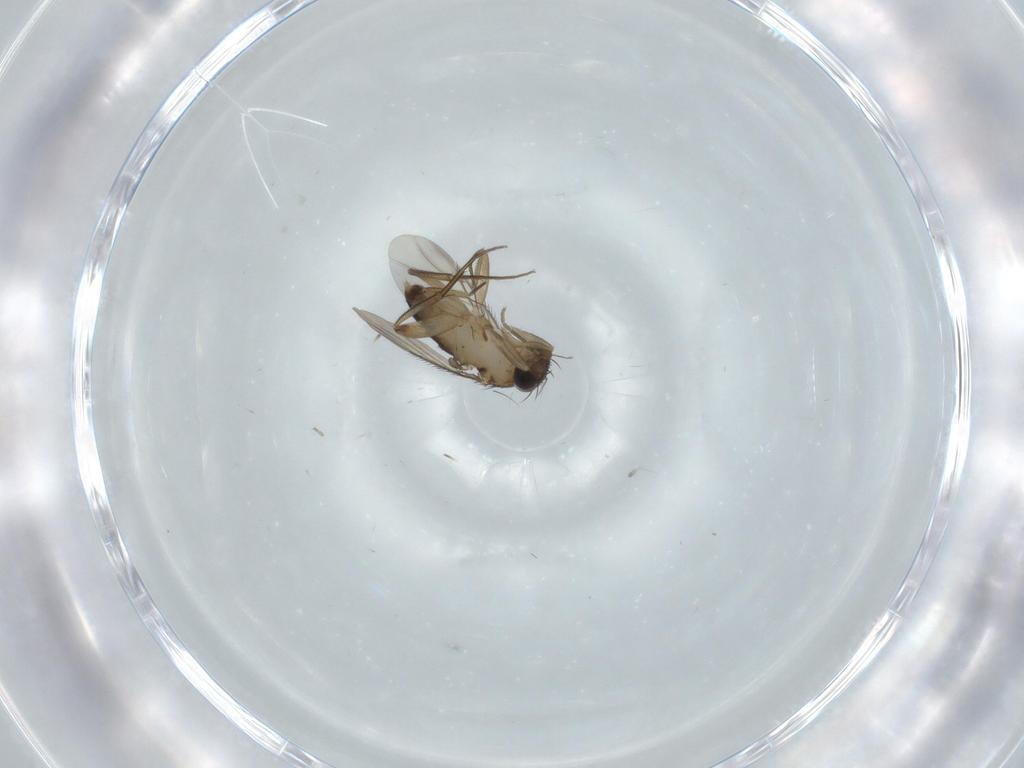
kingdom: Animalia
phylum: Arthropoda
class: Insecta
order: Diptera
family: Phoridae
